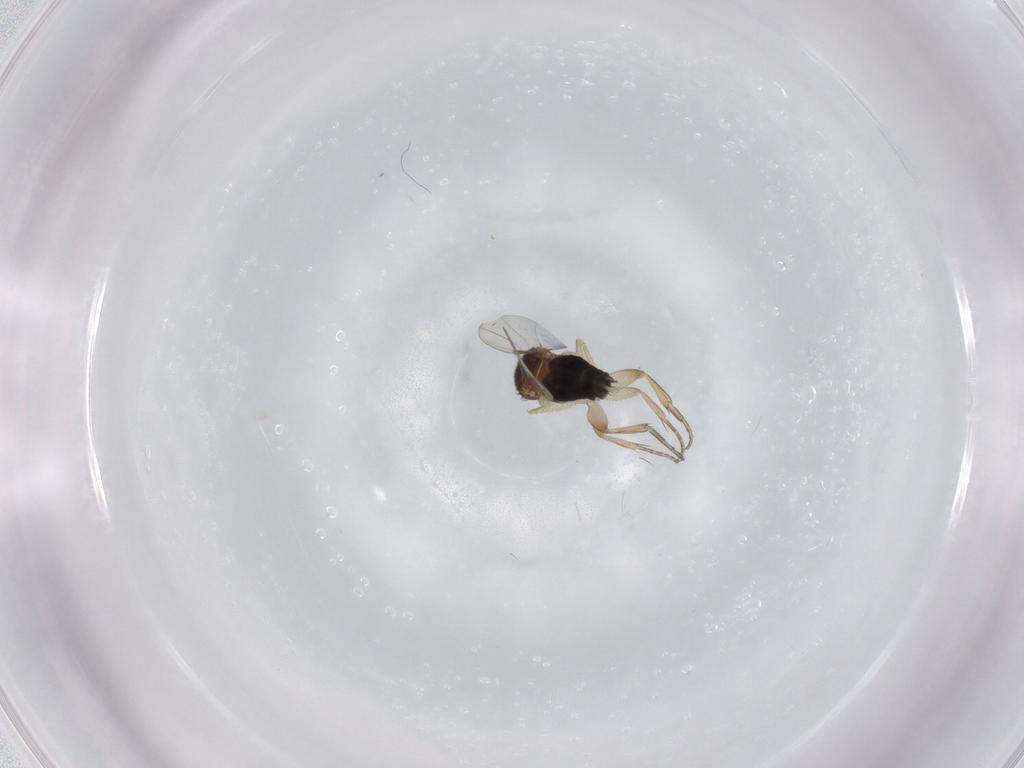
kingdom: Animalia
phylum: Arthropoda
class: Insecta
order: Diptera
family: Phoridae
